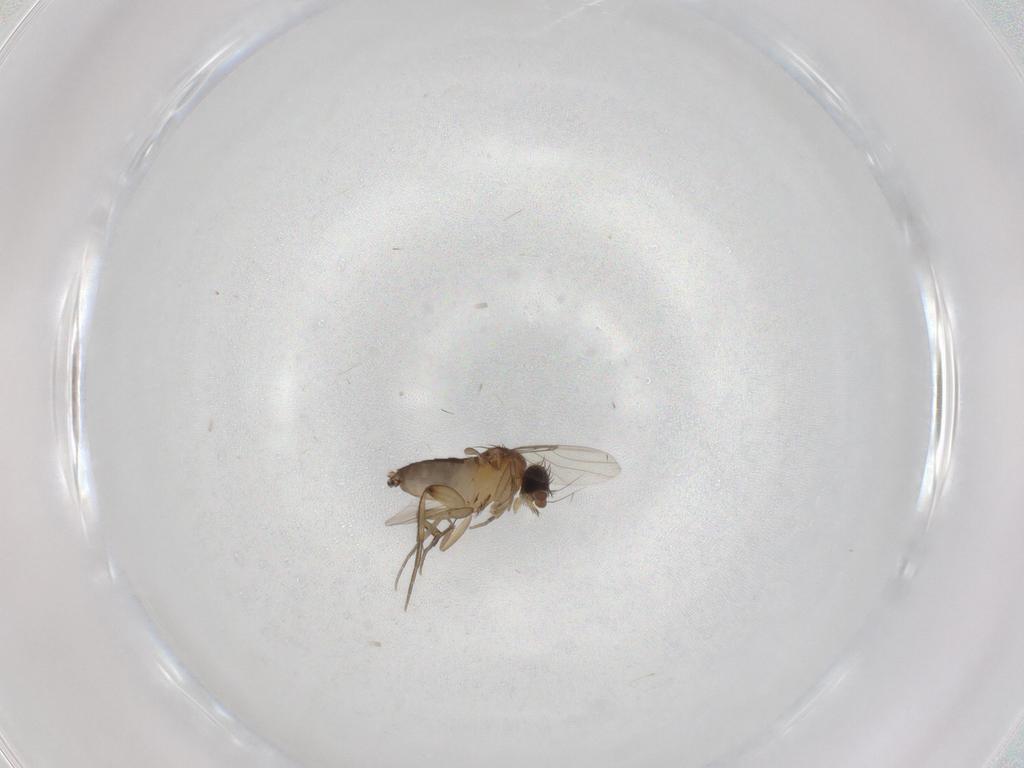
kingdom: Animalia
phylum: Arthropoda
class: Insecta
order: Diptera
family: Phoridae
